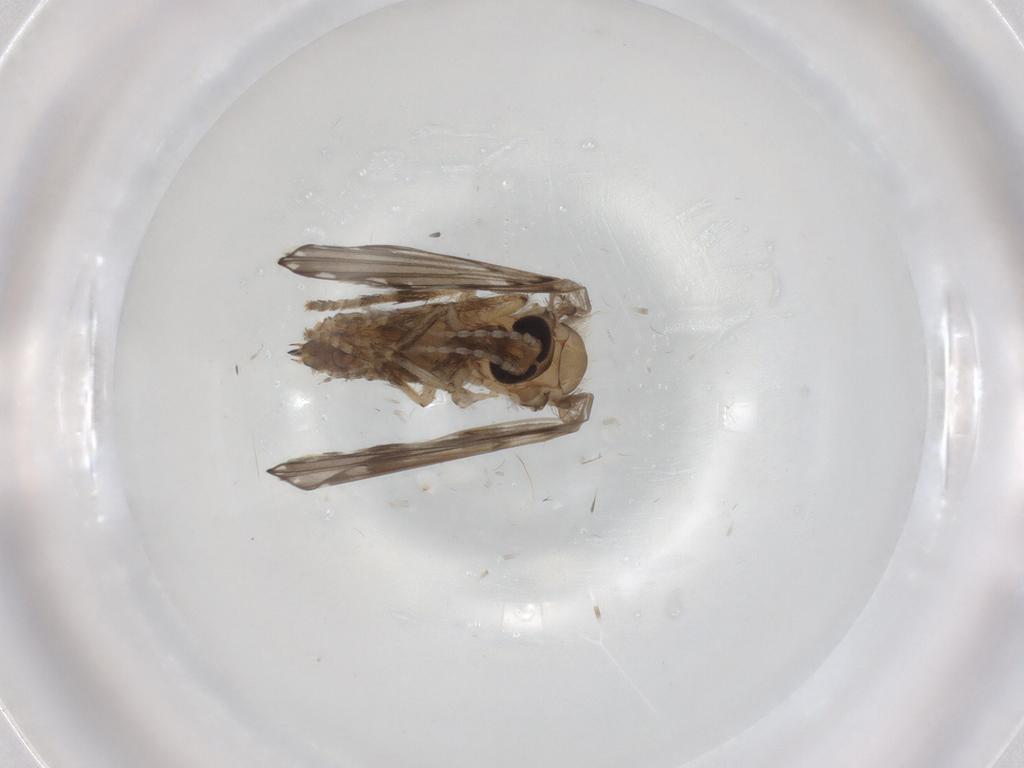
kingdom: Animalia
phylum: Arthropoda
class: Insecta
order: Diptera
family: Psychodidae
